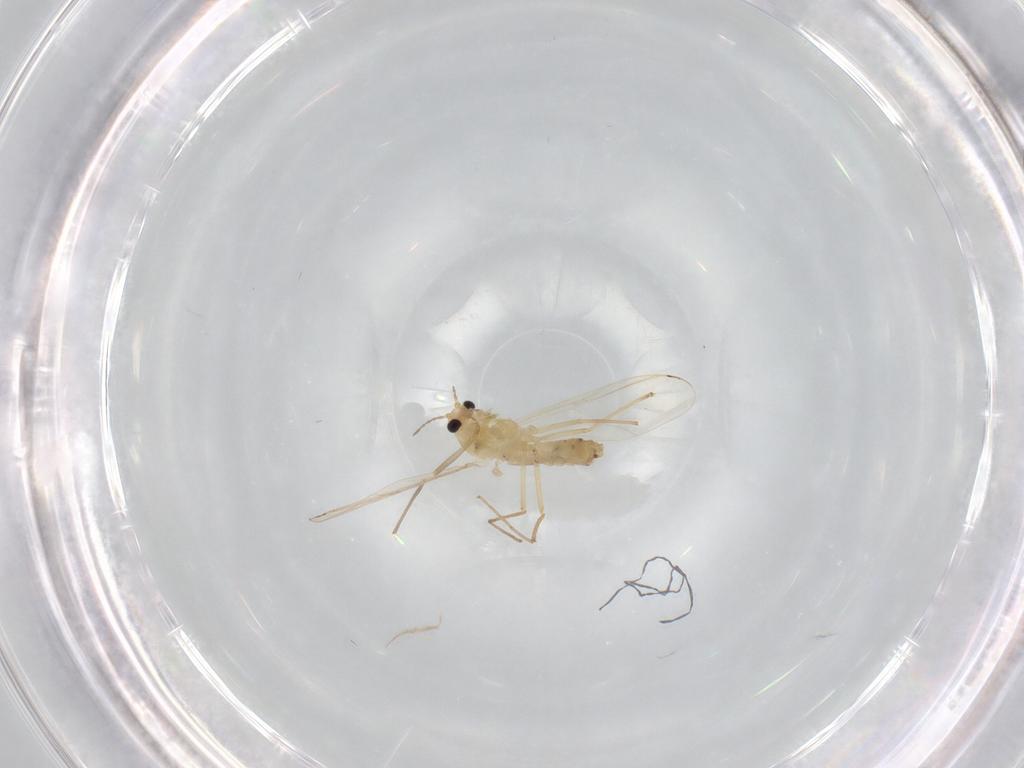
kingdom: Animalia
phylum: Arthropoda
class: Insecta
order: Diptera
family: Chironomidae
